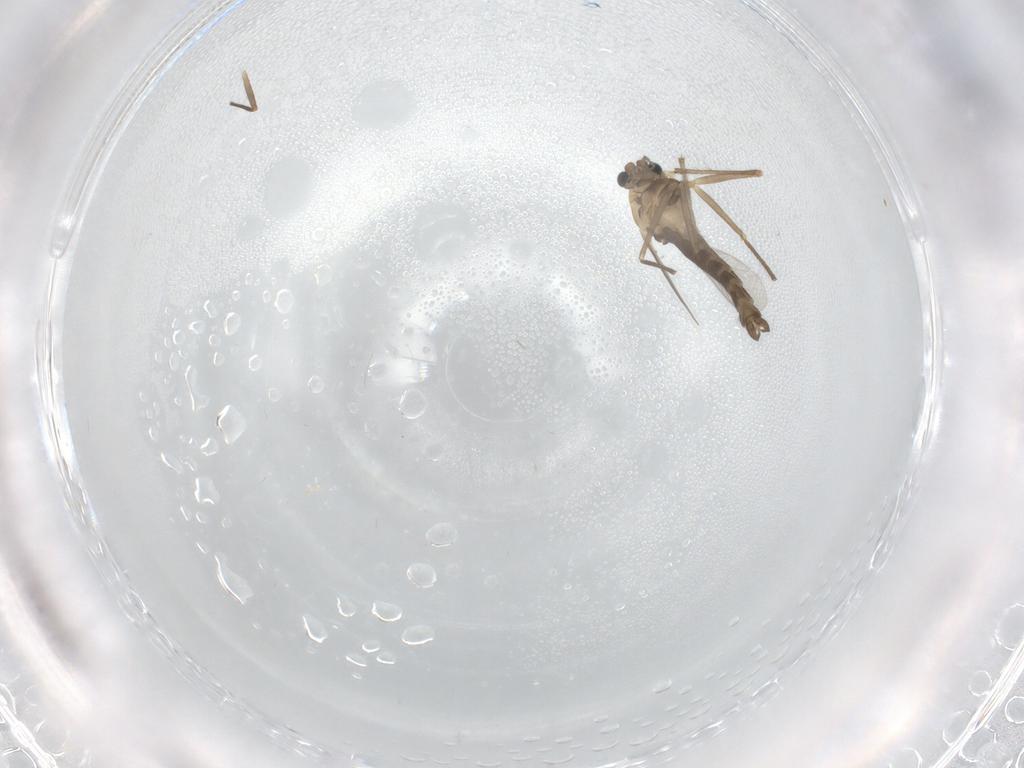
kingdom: Animalia
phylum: Arthropoda
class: Insecta
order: Diptera
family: Chironomidae
